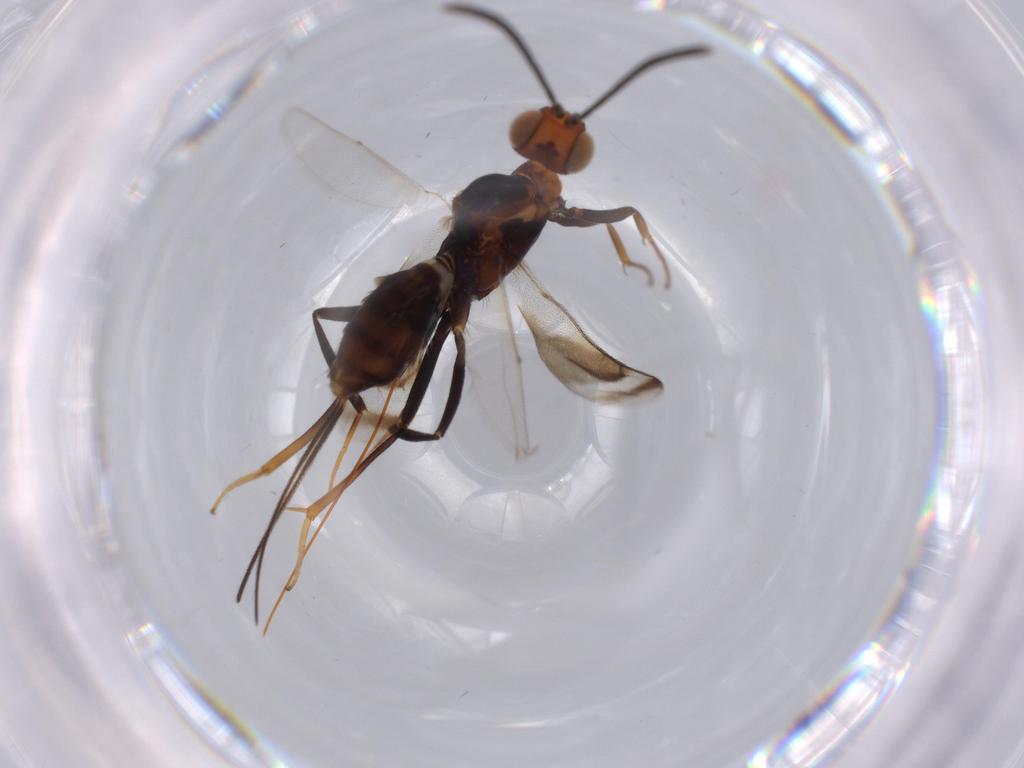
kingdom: Animalia
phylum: Arthropoda
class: Insecta
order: Hymenoptera
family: Eupelmidae
